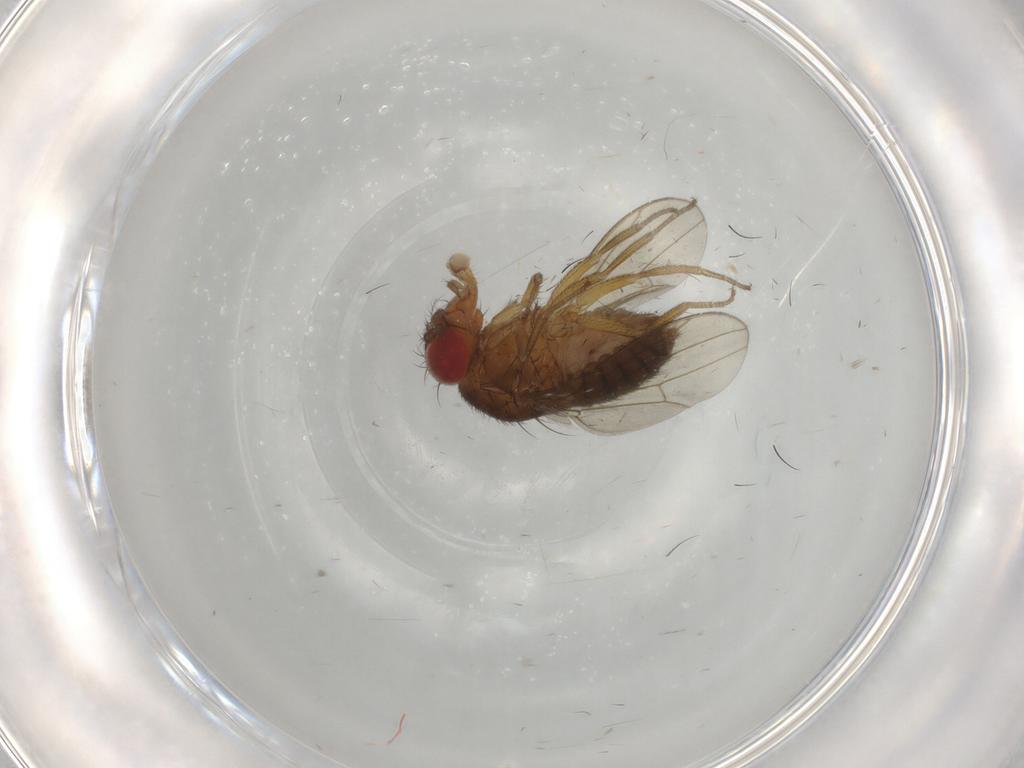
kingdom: Animalia
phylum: Arthropoda
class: Insecta
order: Diptera
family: Drosophilidae
